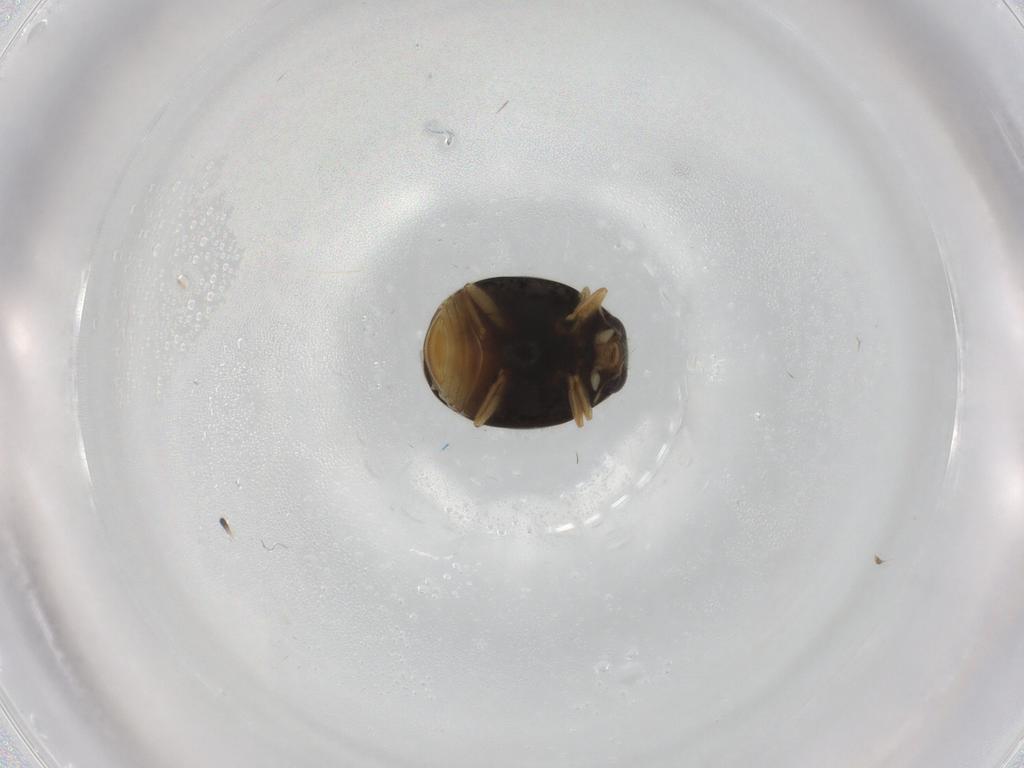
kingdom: Animalia
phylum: Arthropoda
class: Insecta
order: Coleoptera
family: Coccinellidae
